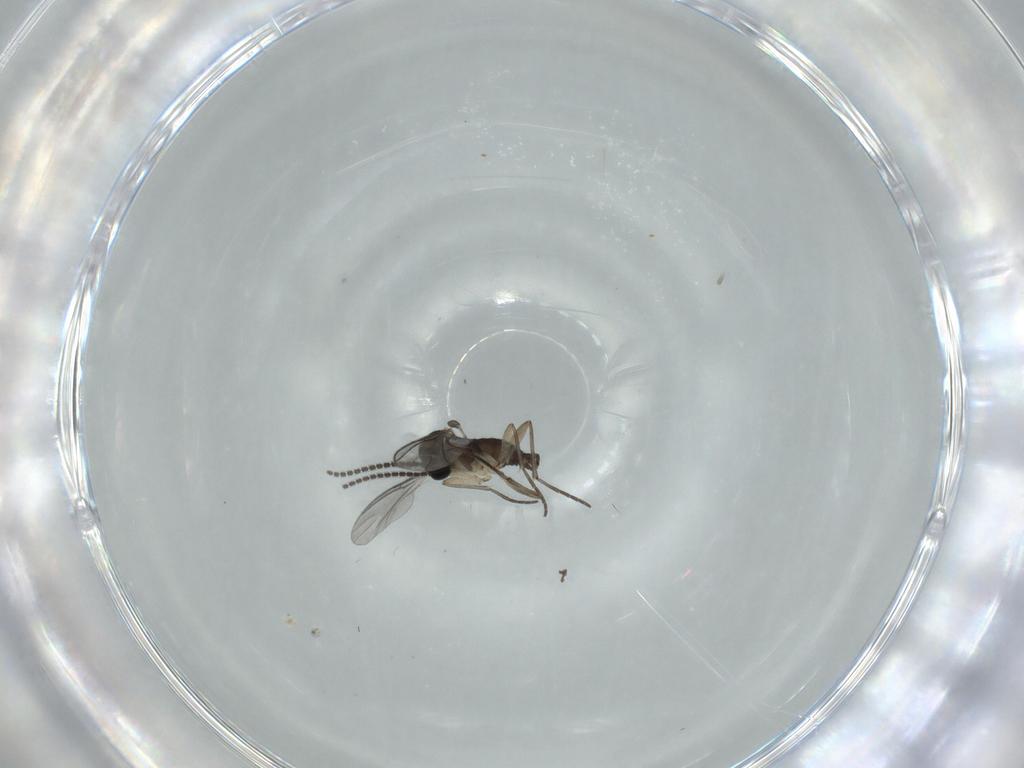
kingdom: Animalia
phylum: Arthropoda
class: Insecta
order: Diptera
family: Sciaridae
